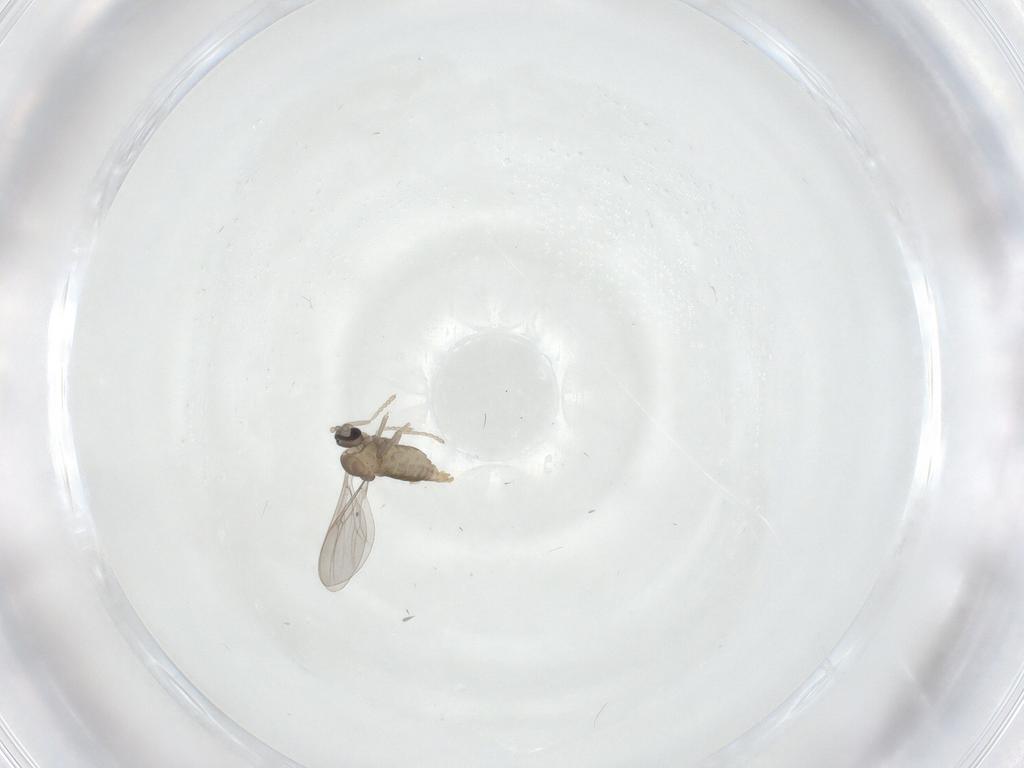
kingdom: Animalia
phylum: Arthropoda
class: Insecta
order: Diptera
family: Cecidomyiidae
